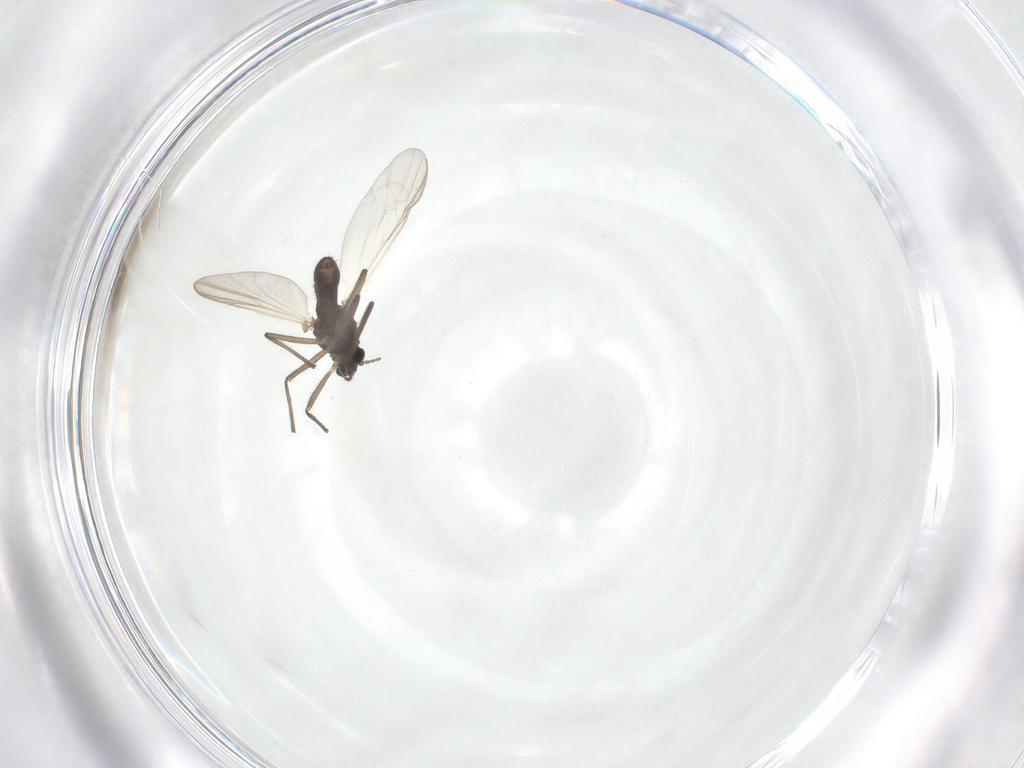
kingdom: Animalia
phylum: Arthropoda
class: Insecta
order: Diptera
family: Chironomidae
